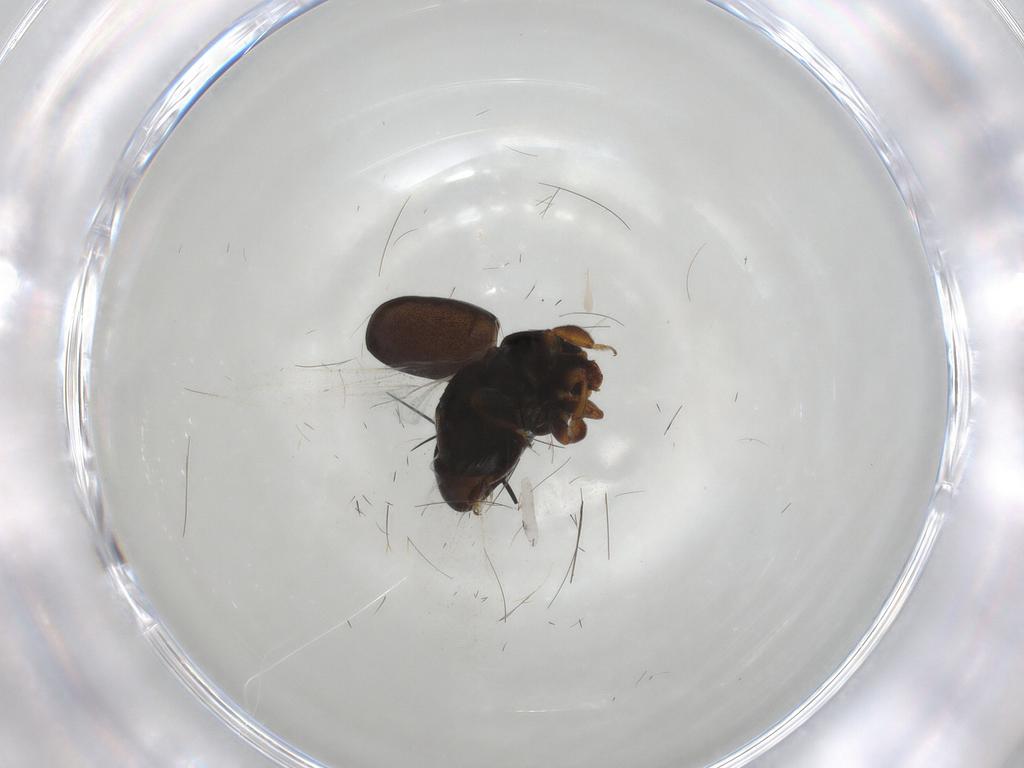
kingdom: Animalia
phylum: Arthropoda
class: Insecta
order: Coleoptera
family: Nitidulidae
